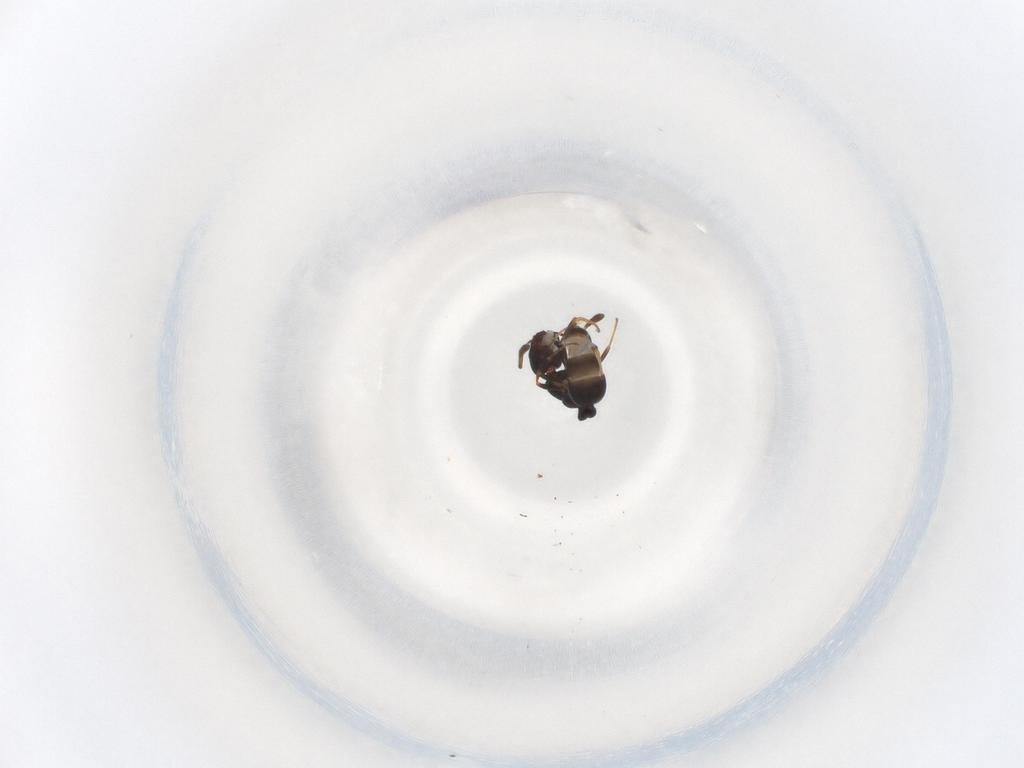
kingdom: Animalia
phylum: Arthropoda
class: Insecta
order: Hymenoptera
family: Formicidae
